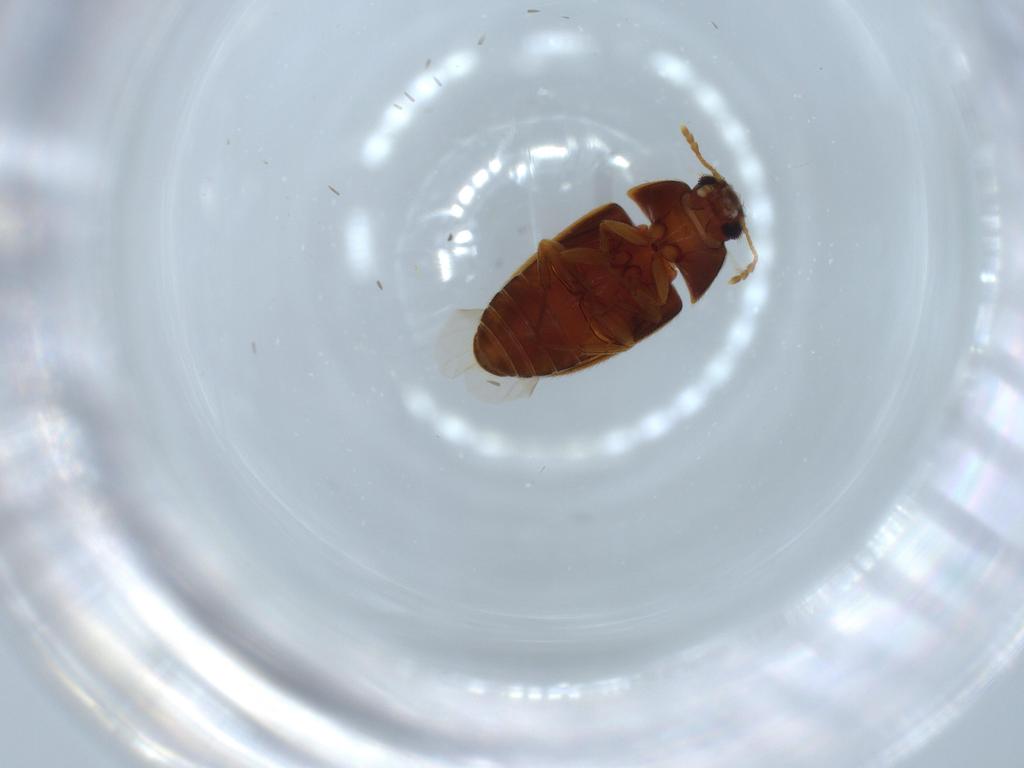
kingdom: Animalia
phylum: Arthropoda
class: Insecta
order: Coleoptera
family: Mycetophagidae
